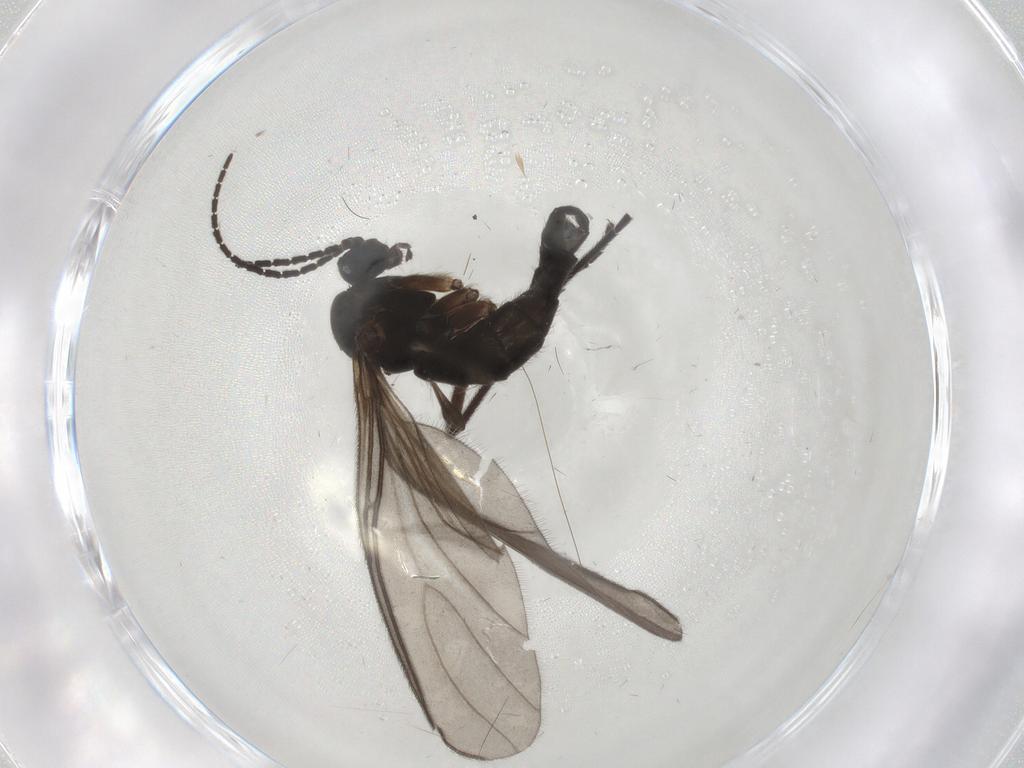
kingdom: Animalia
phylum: Arthropoda
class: Insecta
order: Diptera
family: Sciaridae
